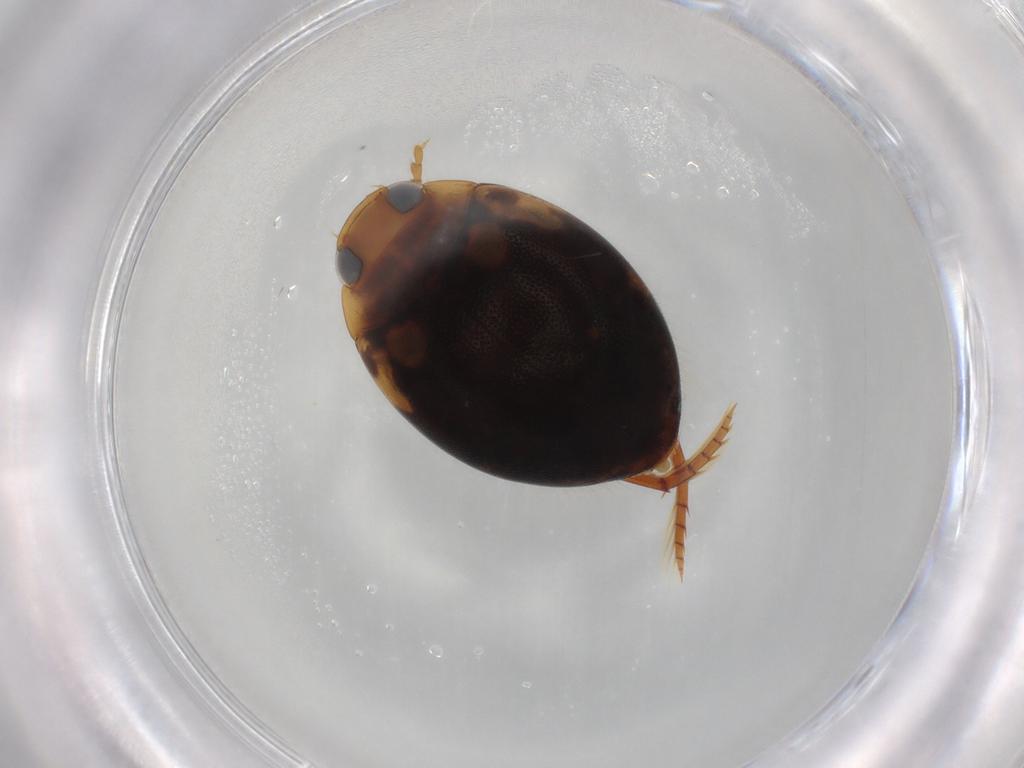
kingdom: Animalia
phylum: Arthropoda
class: Insecta
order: Coleoptera
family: Dytiscidae
